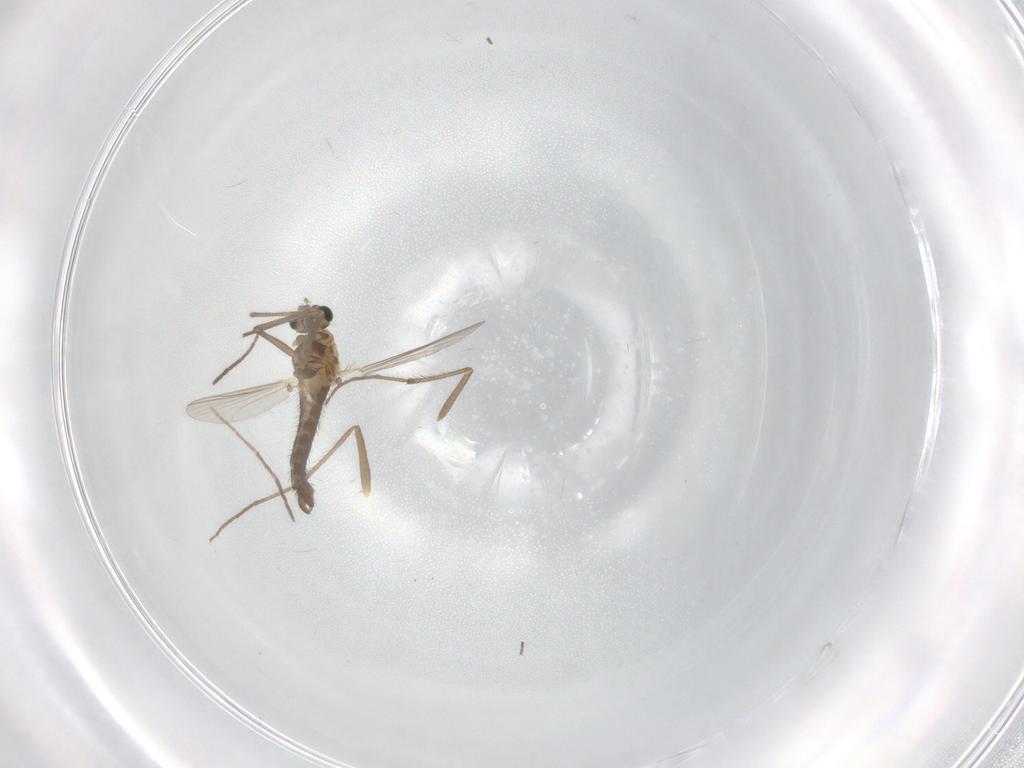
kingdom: Animalia
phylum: Arthropoda
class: Insecta
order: Diptera
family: Chironomidae
